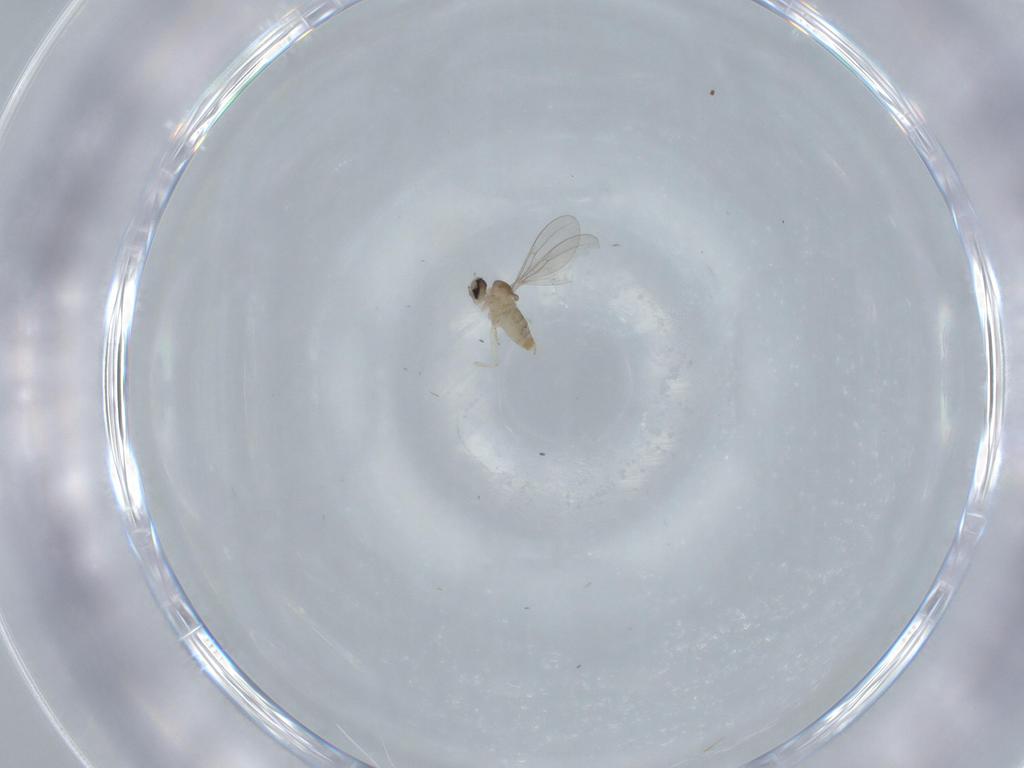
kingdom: Animalia
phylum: Arthropoda
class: Insecta
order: Diptera
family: Cecidomyiidae
